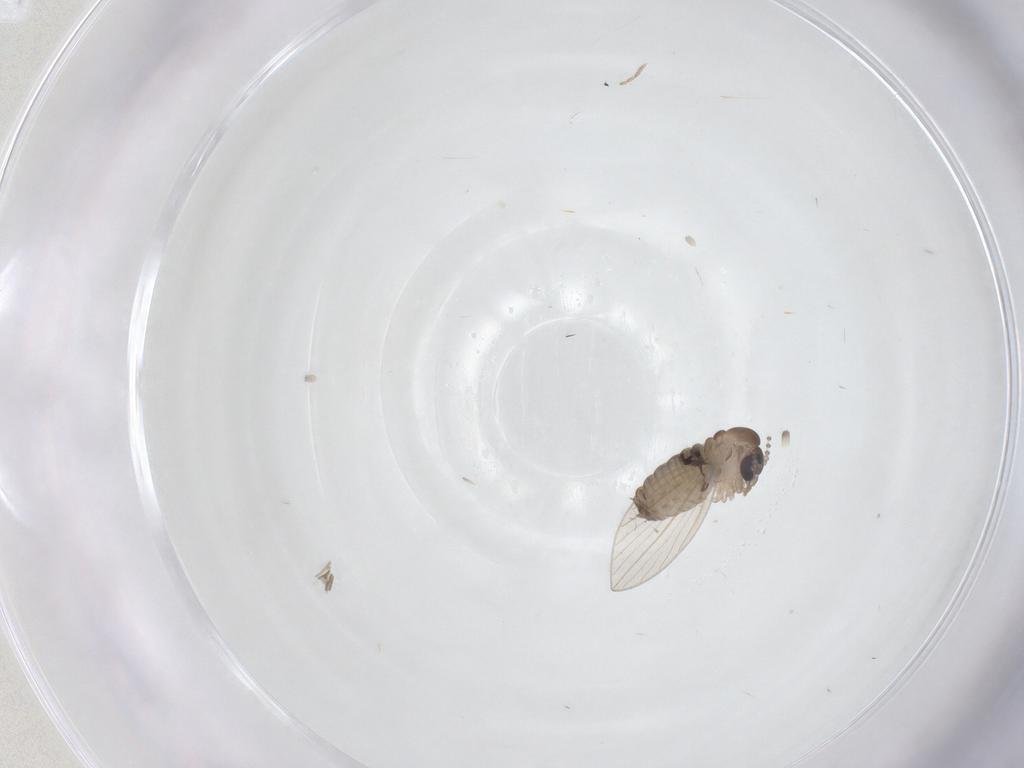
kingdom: Animalia
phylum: Arthropoda
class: Insecta
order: Diptera
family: Psychodidae
